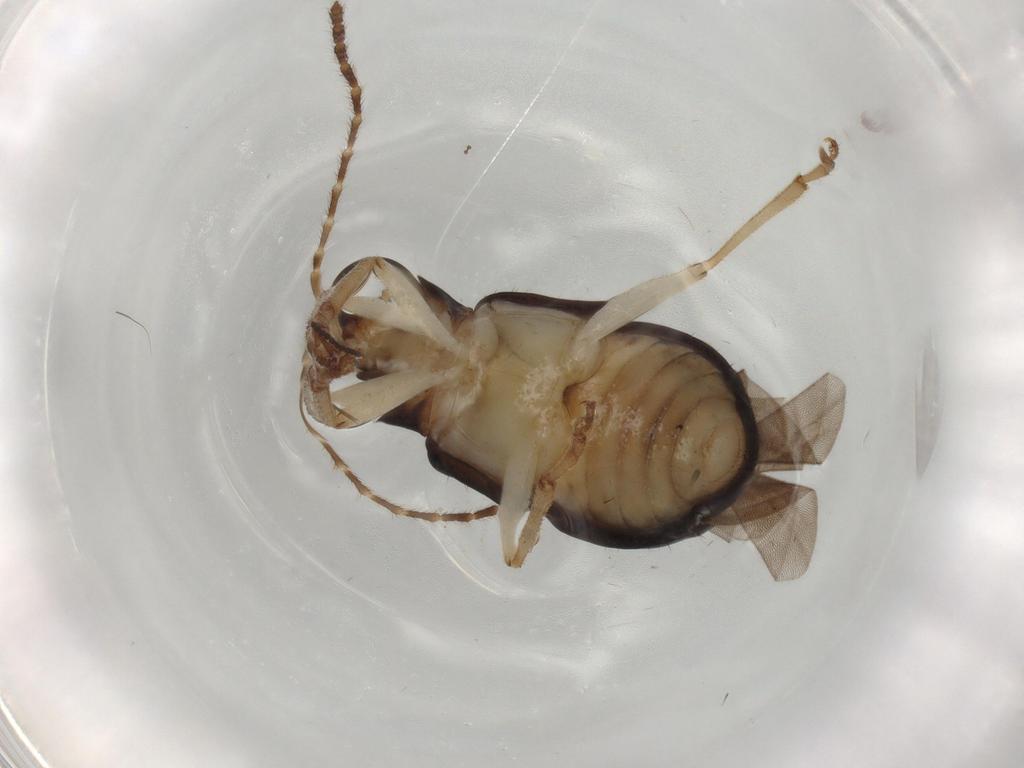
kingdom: Animalia
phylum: Arthropoda
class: Insecta
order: Coleoptera
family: Chrysomelidae
